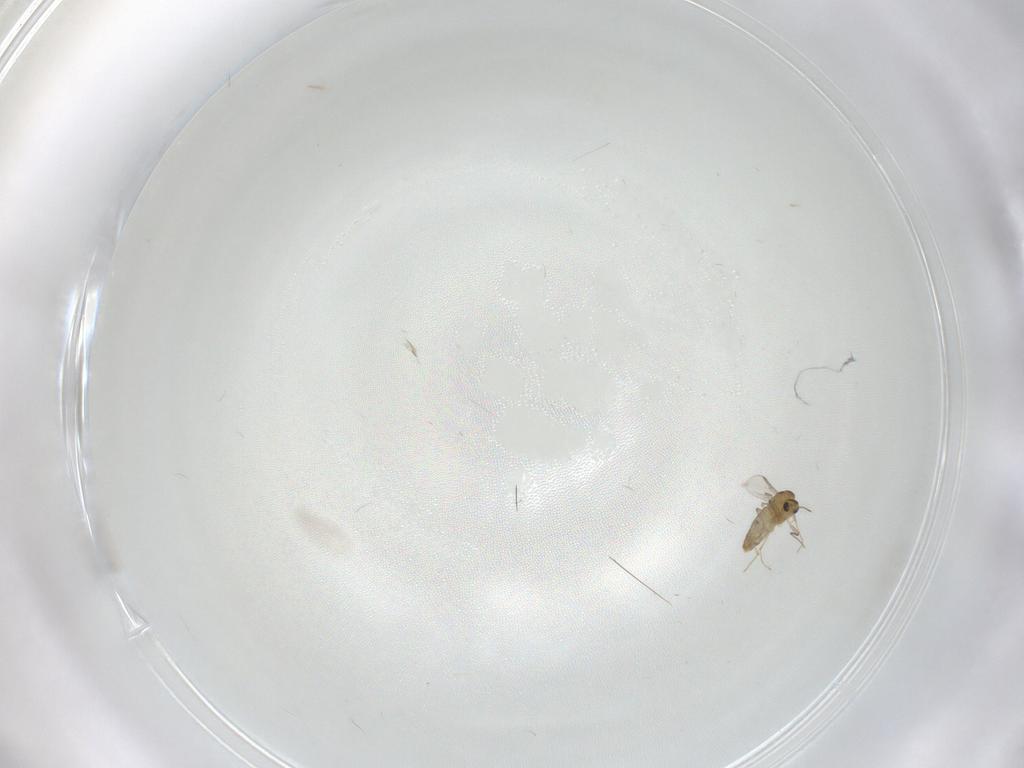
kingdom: Animalia
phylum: Arthropoda
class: Insecta
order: Diptera
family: Chironomidae
